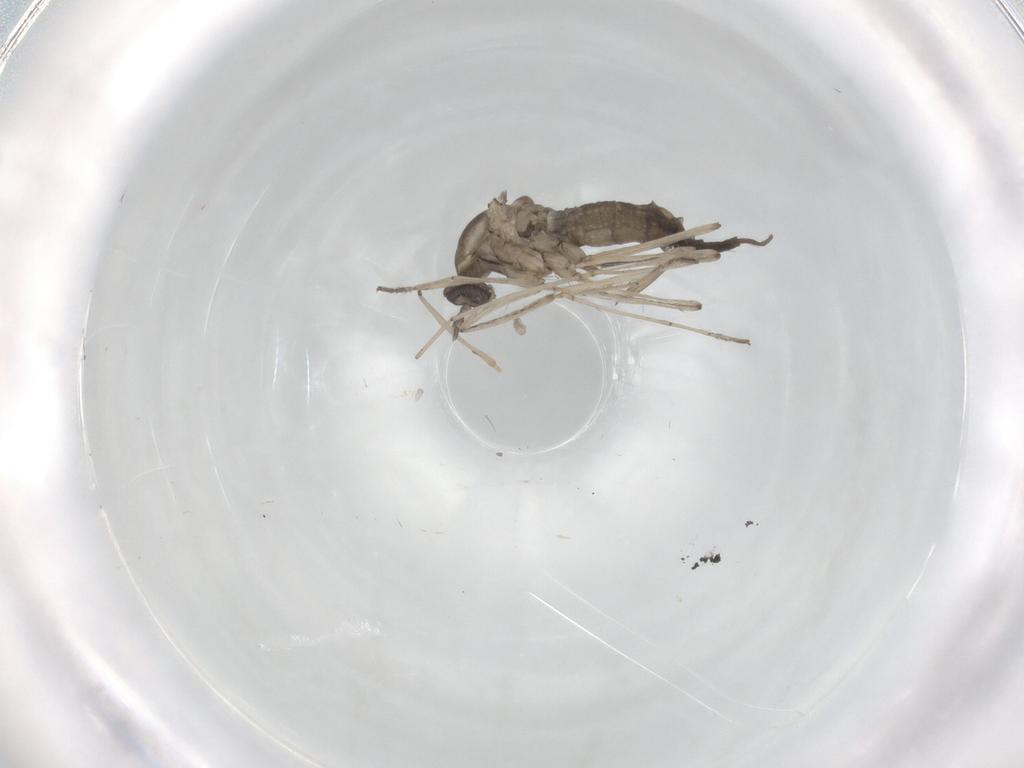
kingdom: Animalia
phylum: Arthropoda
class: Insecta
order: Diptera
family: Cecidomyiidae
